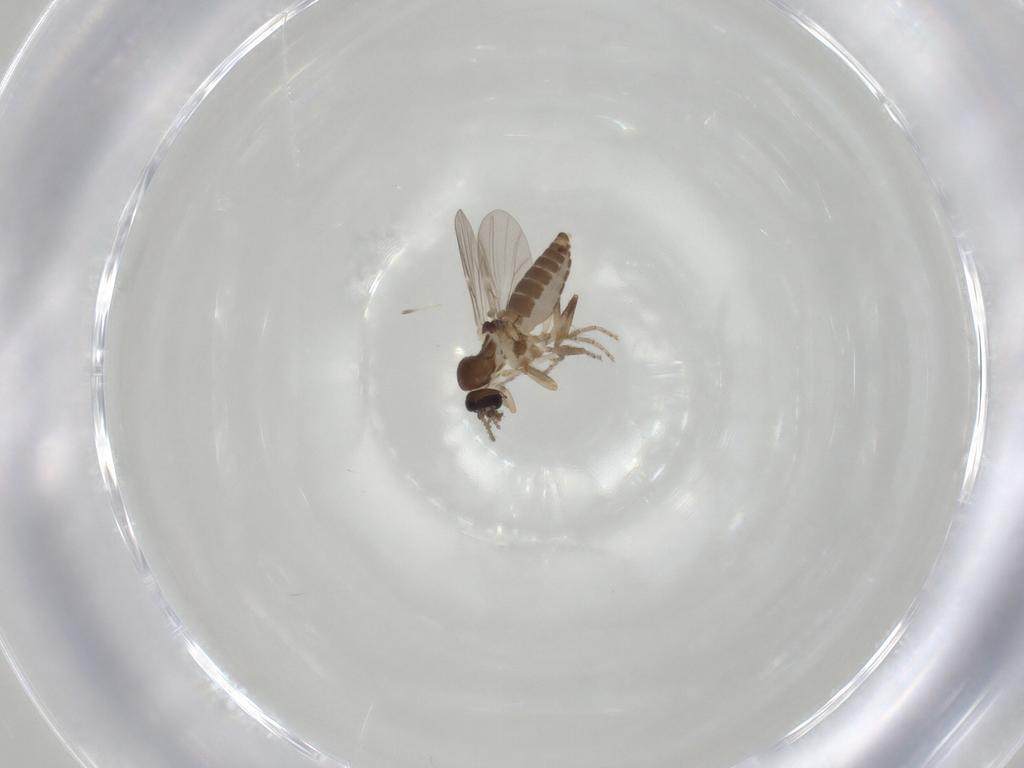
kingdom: Animalia
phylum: Arthropoda
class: Insecta
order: Diptera
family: Ceratopogonidae
